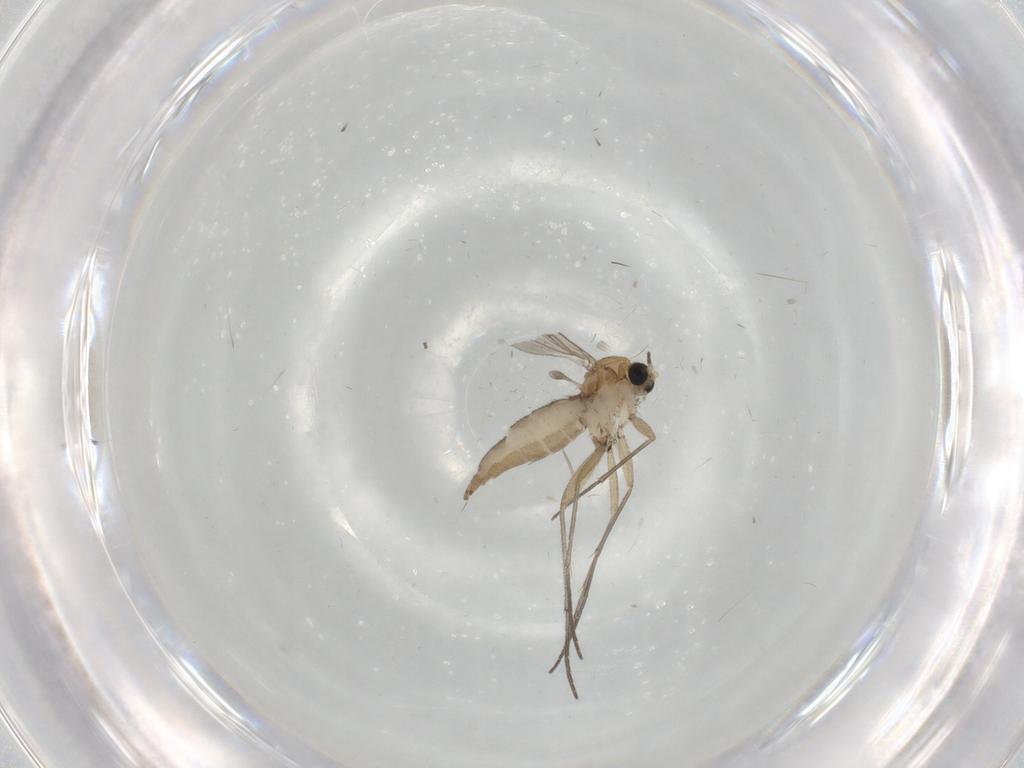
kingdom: Animalia
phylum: Arthropoda
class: Insecta
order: Diptera
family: Sciaridae
